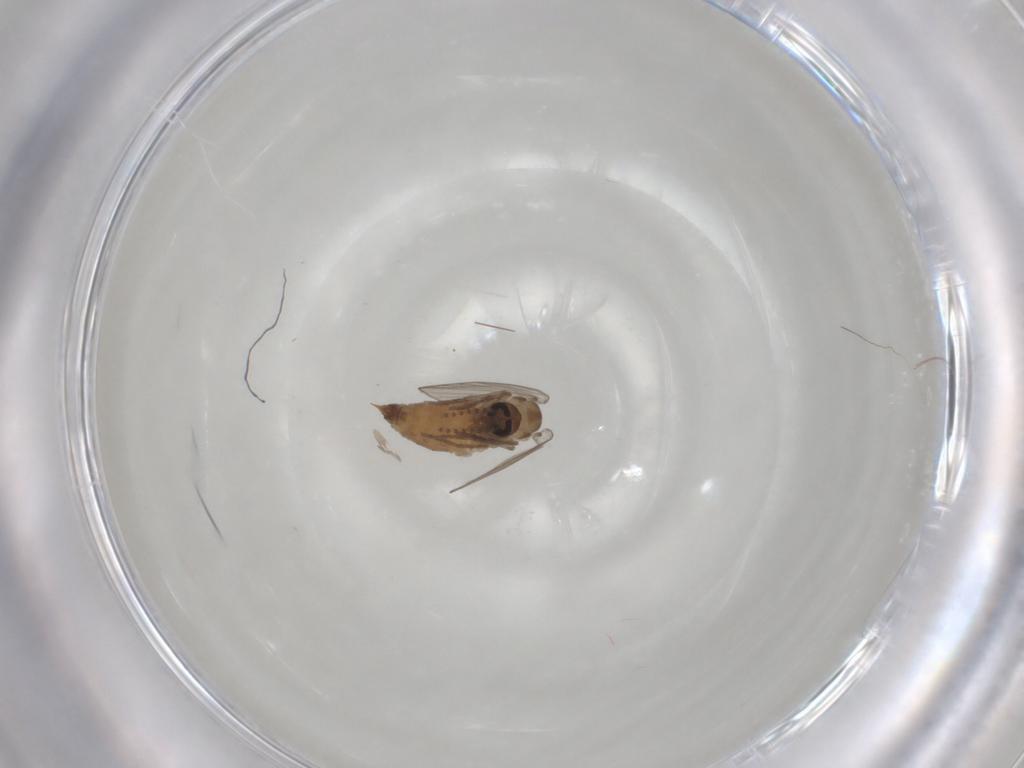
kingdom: Animalia
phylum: Arthropoda
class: Insecta
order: Diptera
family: Psychodidae
